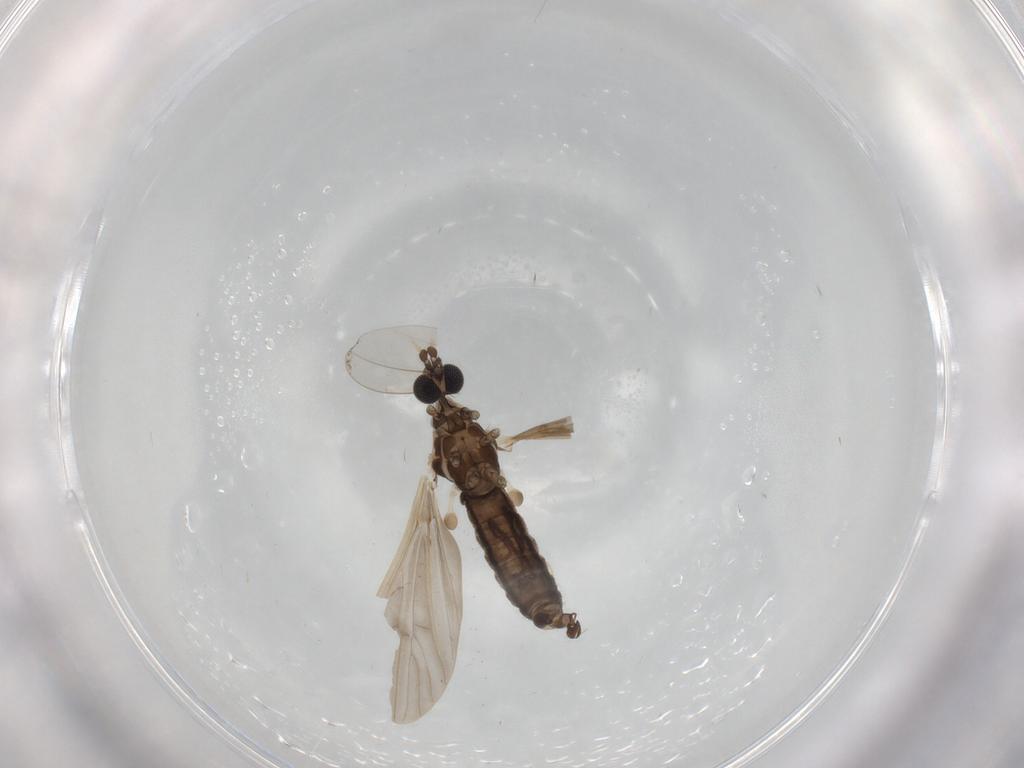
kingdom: Animalia
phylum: Arthropoda
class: Insecta
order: Diptera
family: Limoniidae
